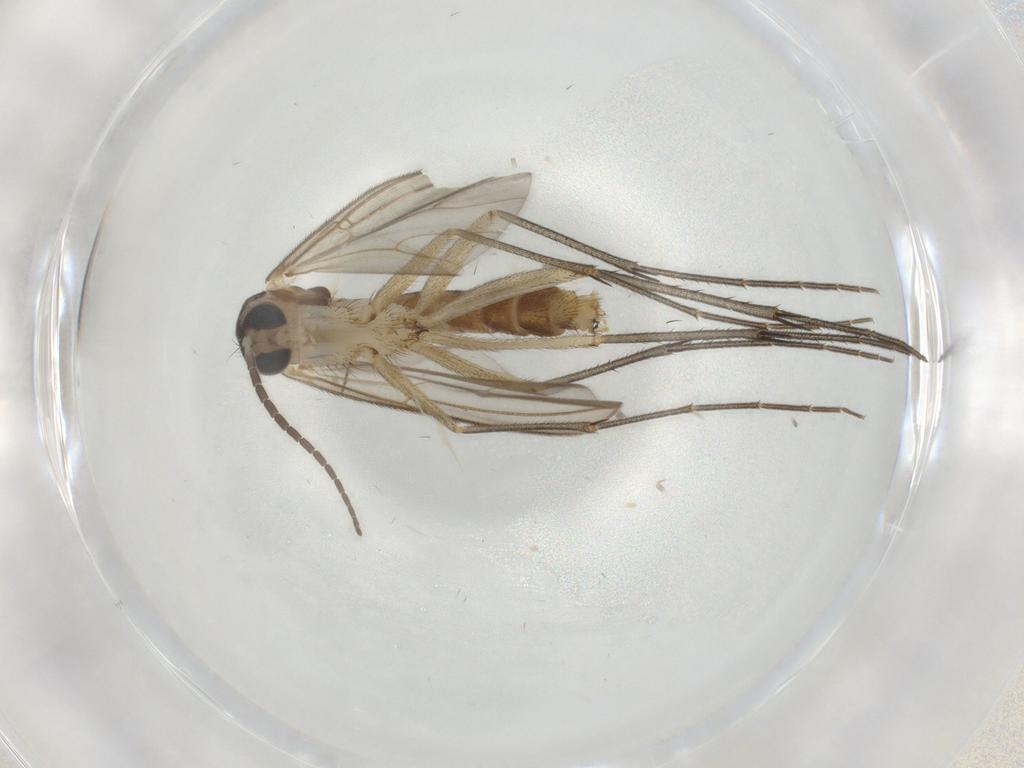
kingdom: Animalia
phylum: Arthropoda
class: Insecta
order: Diptera
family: Mycetophilidae
